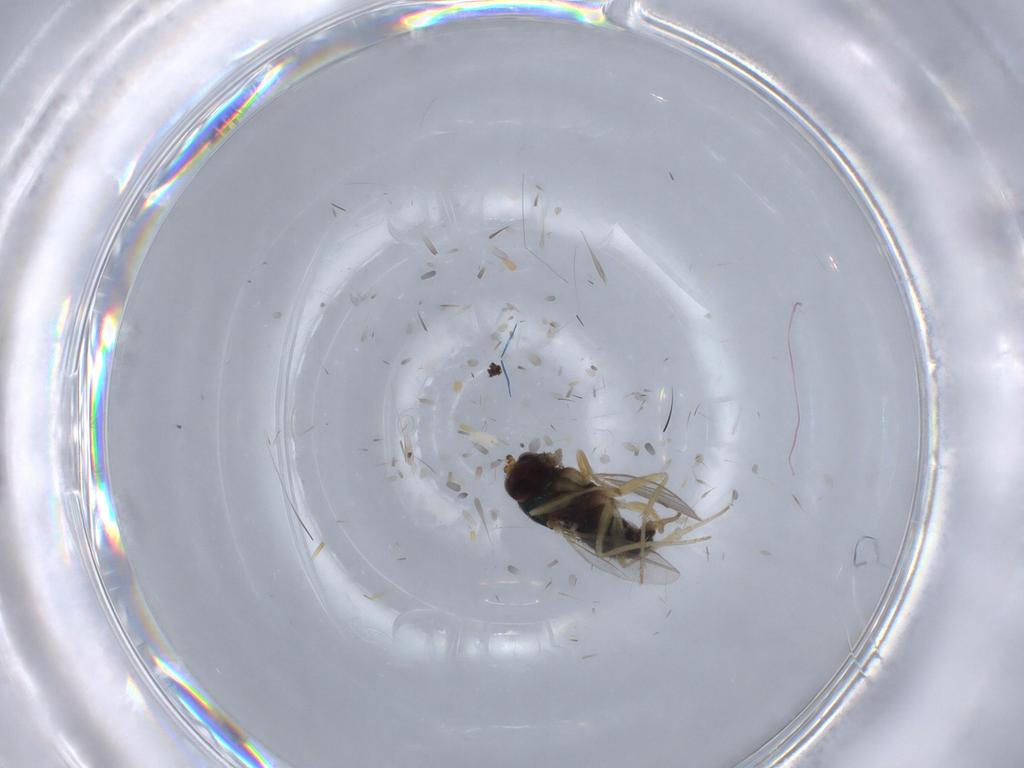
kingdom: Animalia
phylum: Arthropoda
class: Insecta
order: Diptera
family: Dolichopodidae
